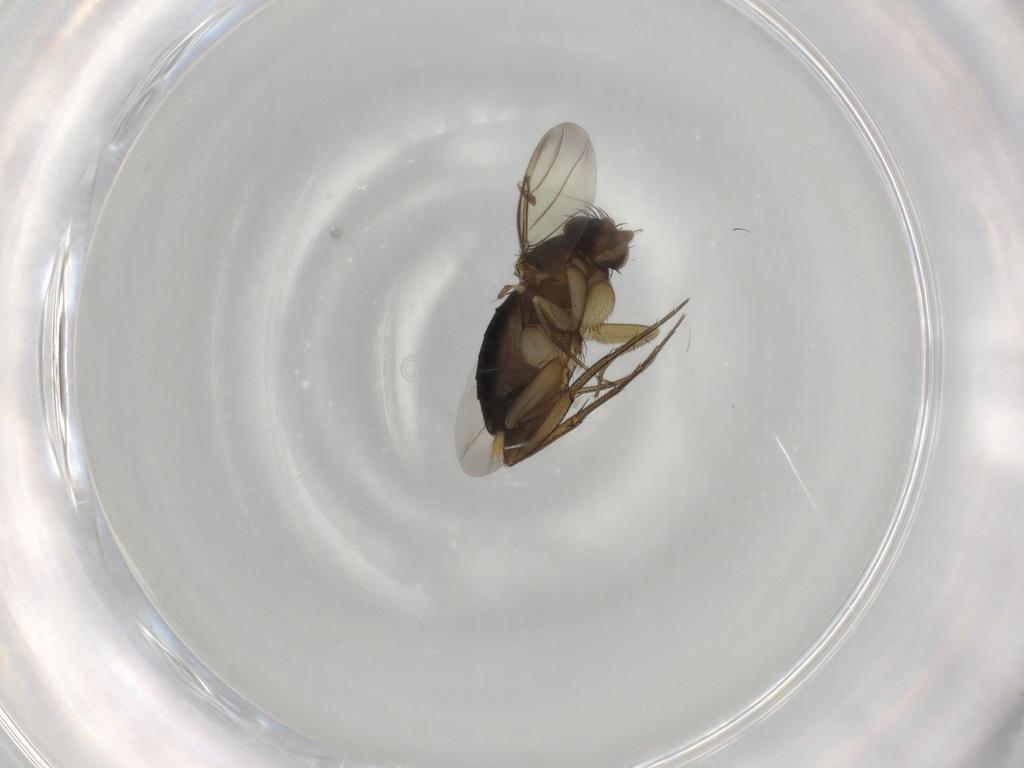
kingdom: Animalia
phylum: Arthropoda
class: Insecta
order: Diptera
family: Phoridae
